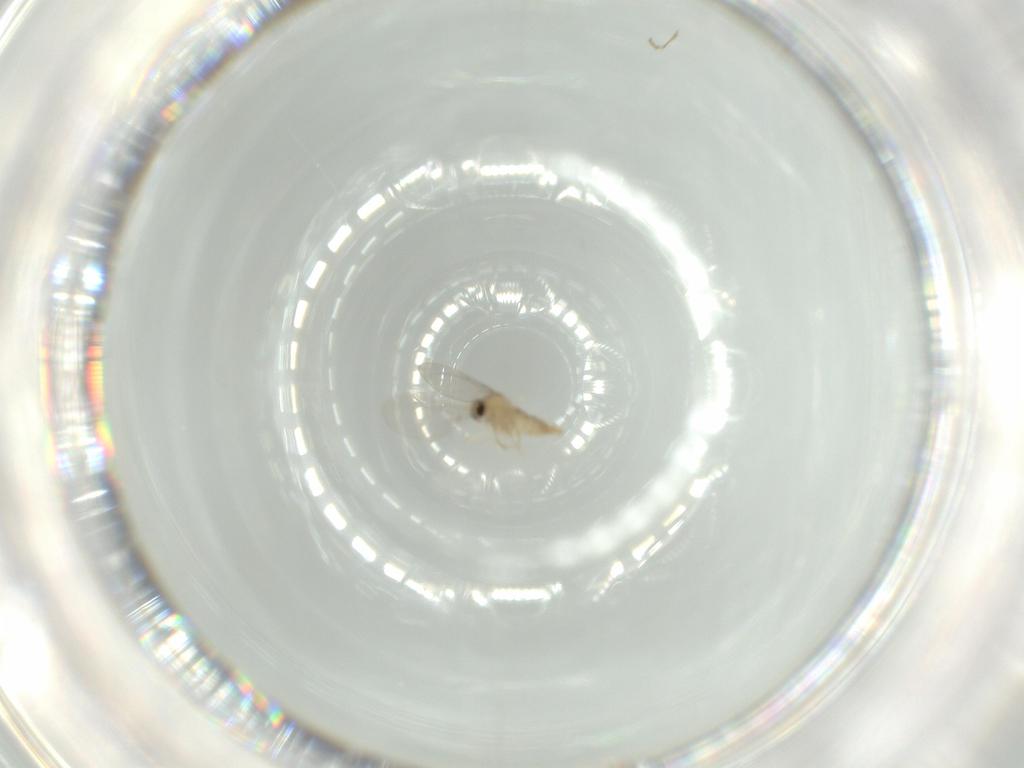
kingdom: Animalia
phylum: Arthropoda
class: Insecta
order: Diptera
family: Cecidomyiidae
